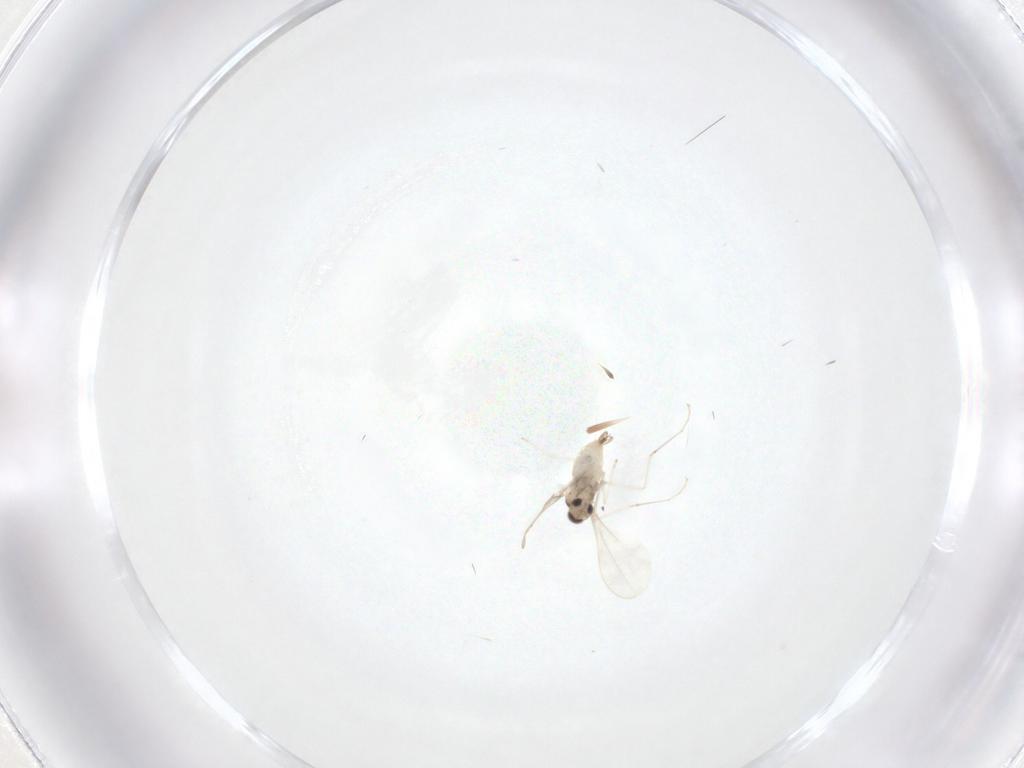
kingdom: Animalia
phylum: Arthropoda
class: Insecta
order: Diptera
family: Cecidomyiidae
